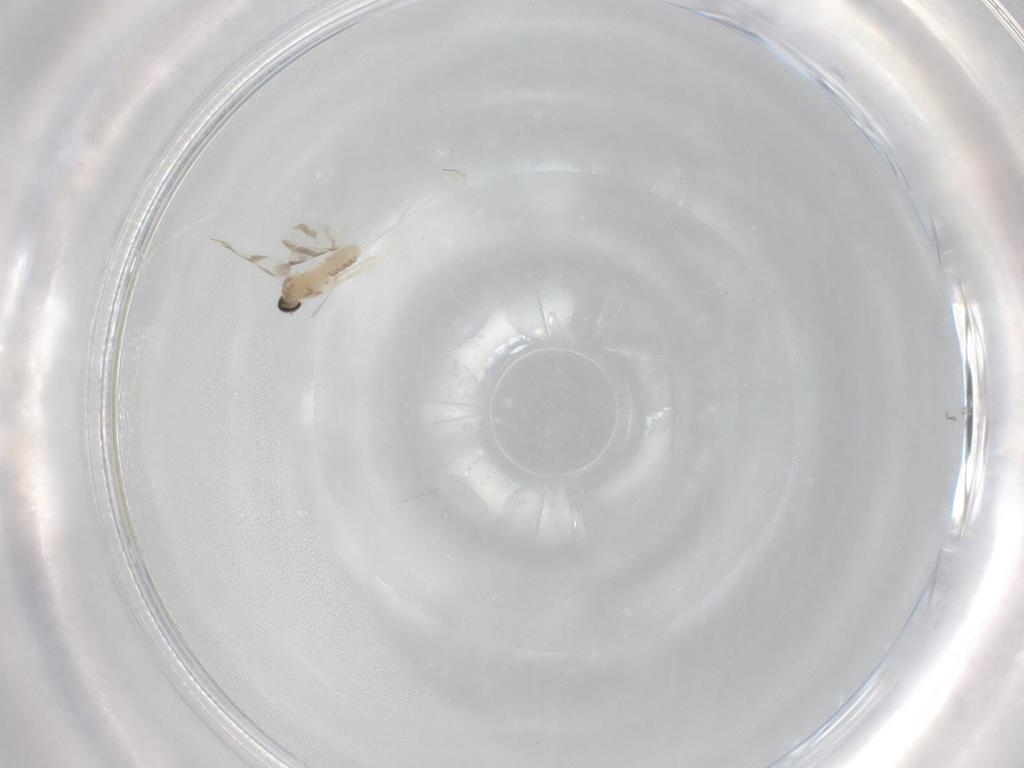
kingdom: Animalia
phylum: Arthropoda
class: Insecta
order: Diptera
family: Cecidomyiidae
